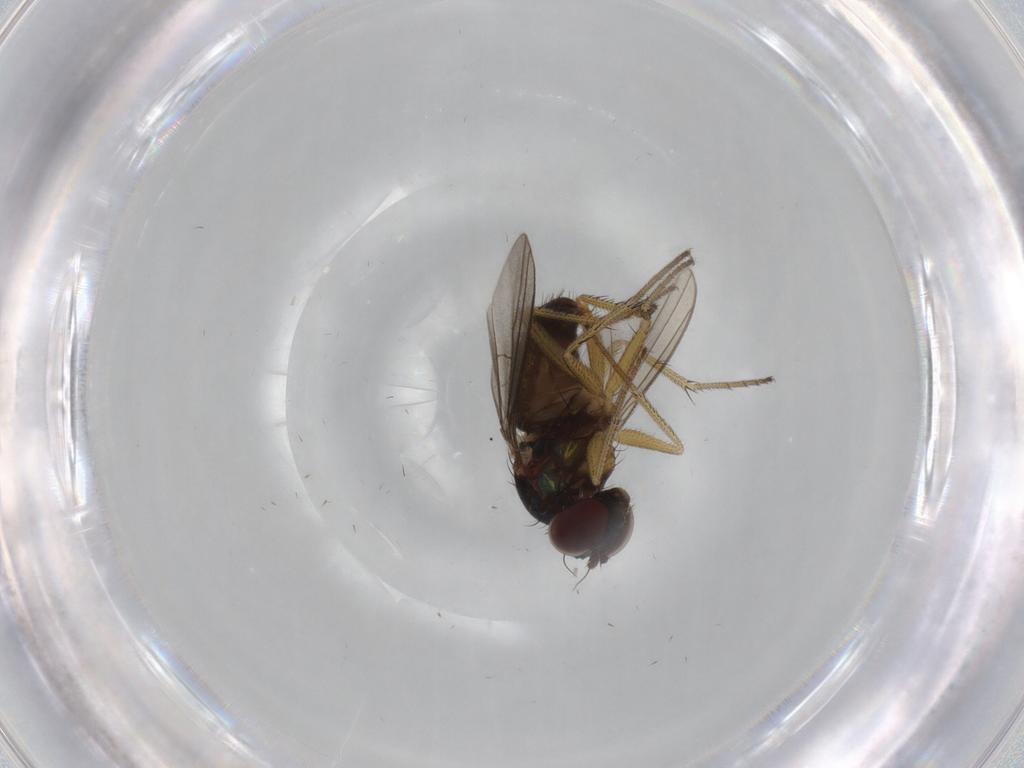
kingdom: Animalia
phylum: Arthropoda
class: Insecta
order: Diptera
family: Dolichopodidae
